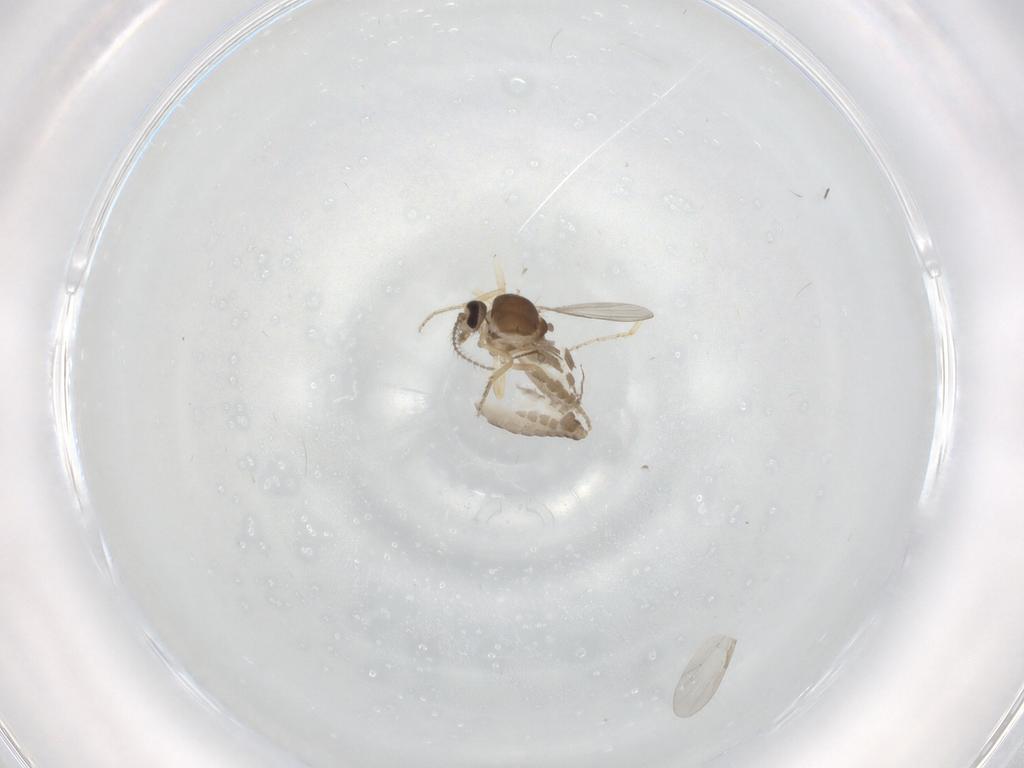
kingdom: Animalia
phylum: Arthropoda
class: Insecta
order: Diptera
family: Ceratopogonidae
